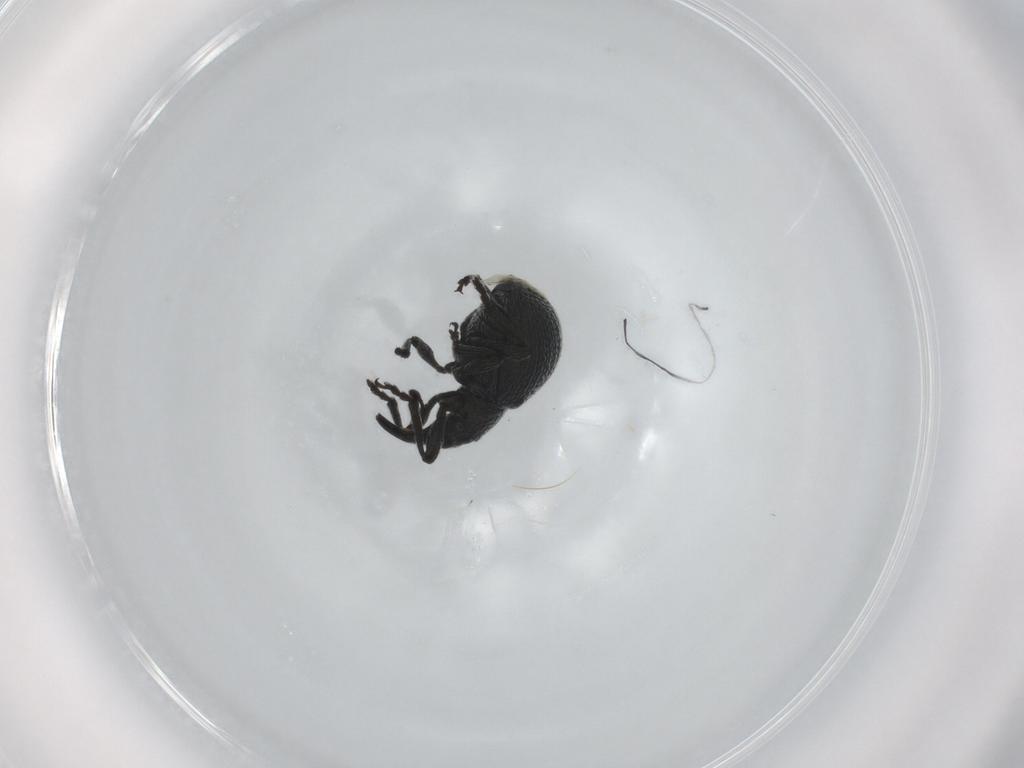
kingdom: Animalia
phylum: Arthropoda
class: Insecta
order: Coleoptera
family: Brentidae
